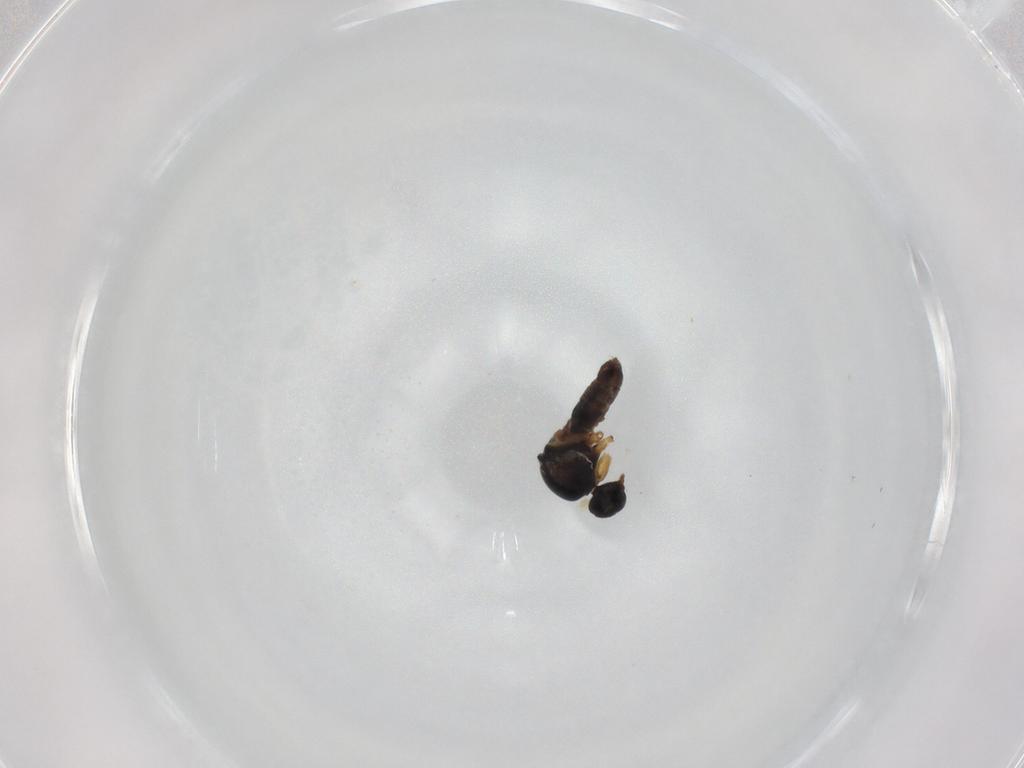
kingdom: Animalia
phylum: Arthropoda
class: Insecta
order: Diptera
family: Hybotidae
